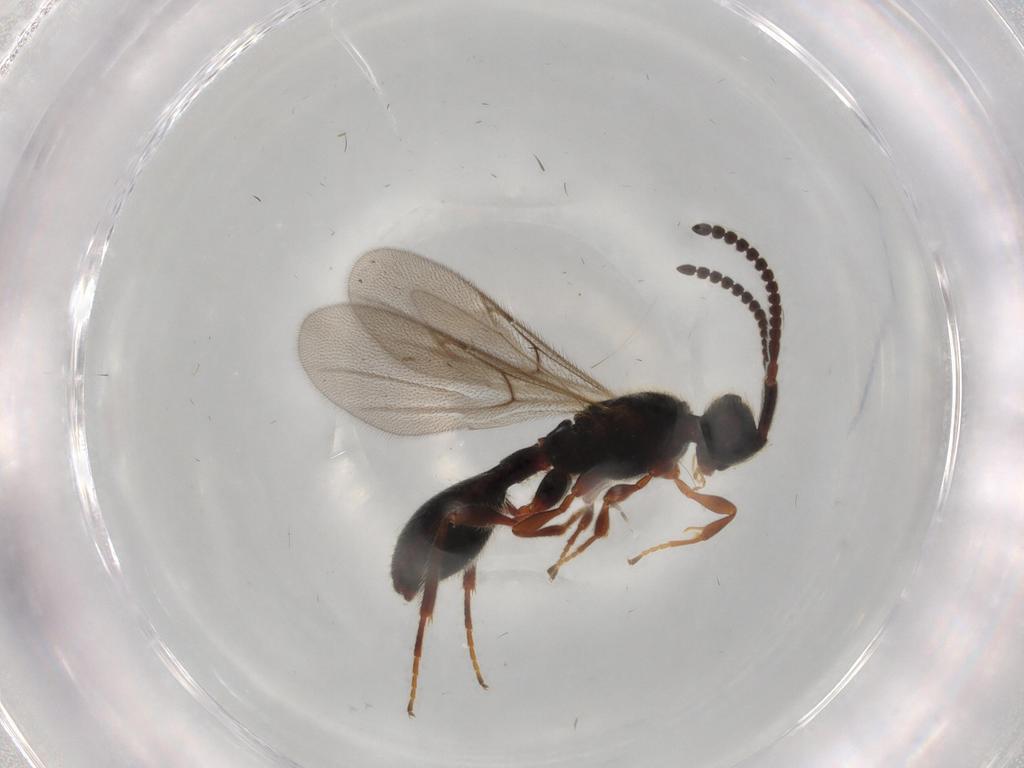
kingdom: Animalia
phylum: Arthropoda
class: Insecta
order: Hymenoptera
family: Diapriidae
